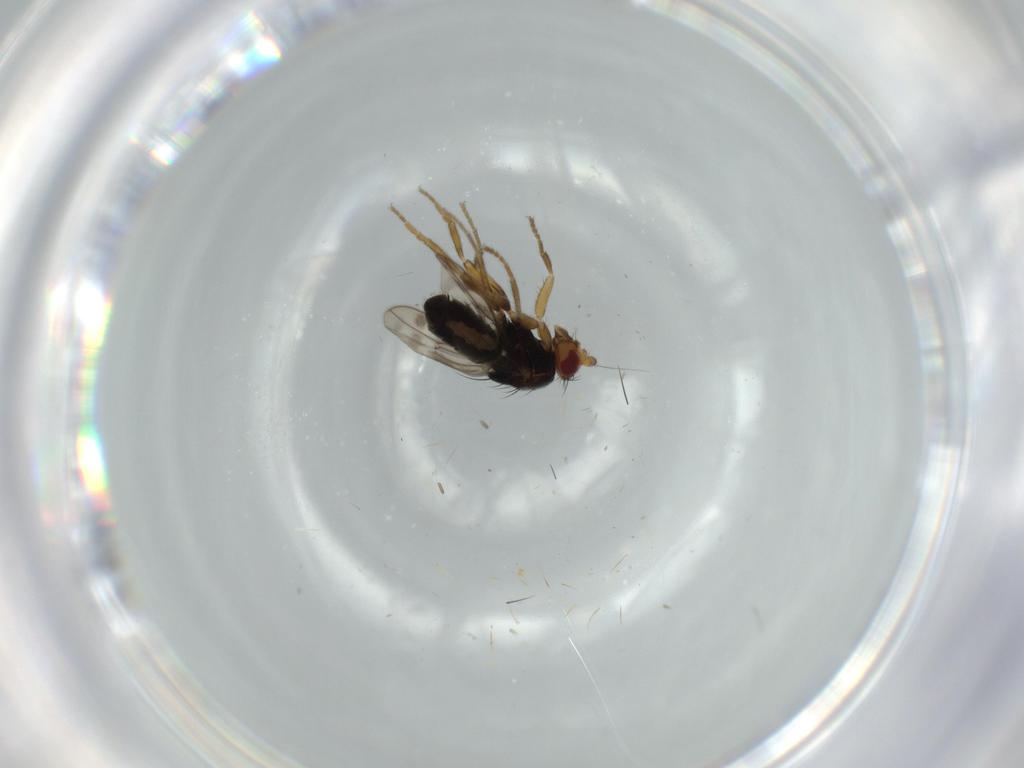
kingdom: Animalia
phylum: Arthropoda
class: Insecta
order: Diptera
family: Sphaeroceridae
